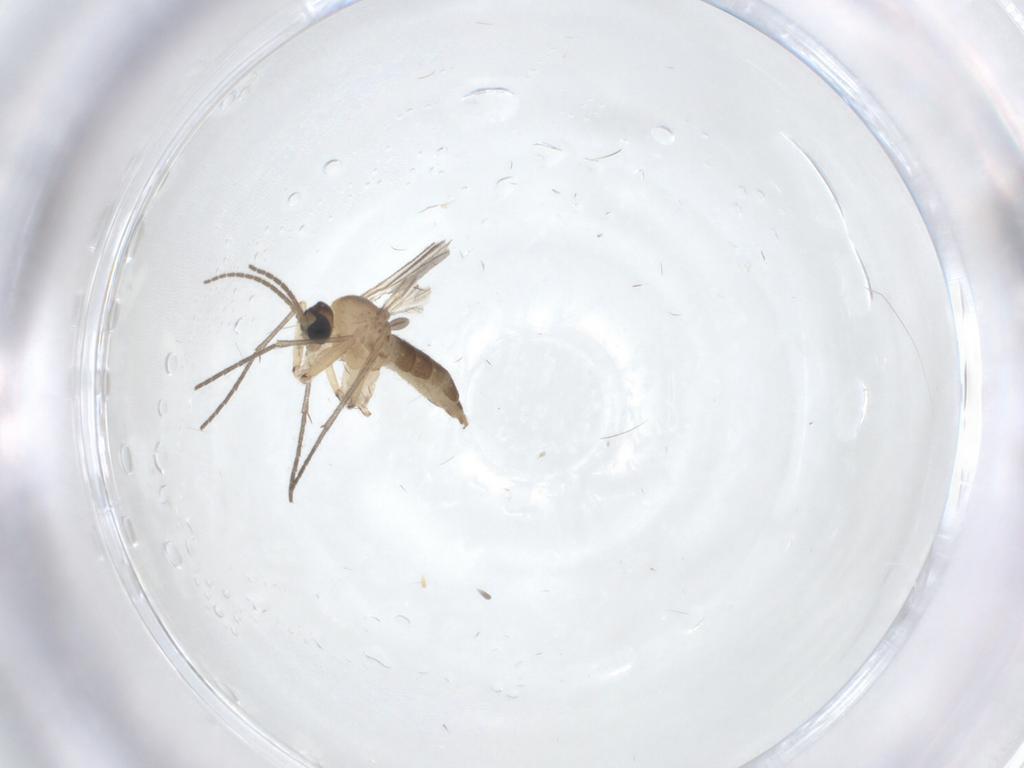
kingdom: Animalia
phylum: Arthropoda
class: Insecta
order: Diptera
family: Sciaridae
